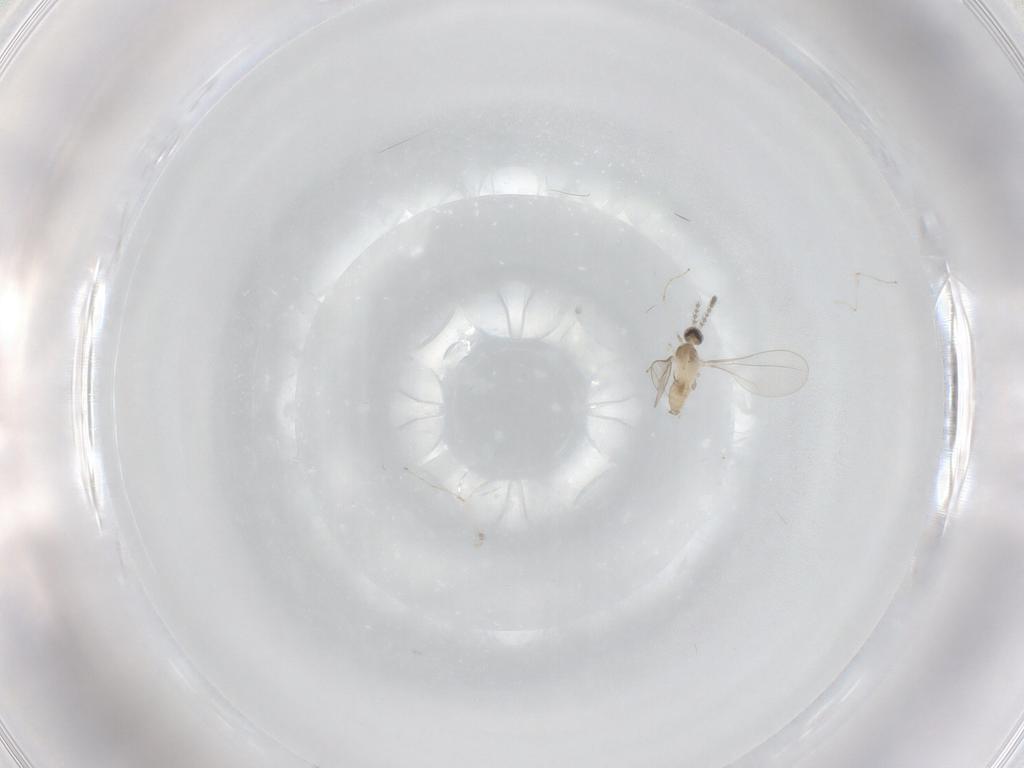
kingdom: Animalia
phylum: Arthropoda
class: Insecta
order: Diptera
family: Cecidomyiidae
